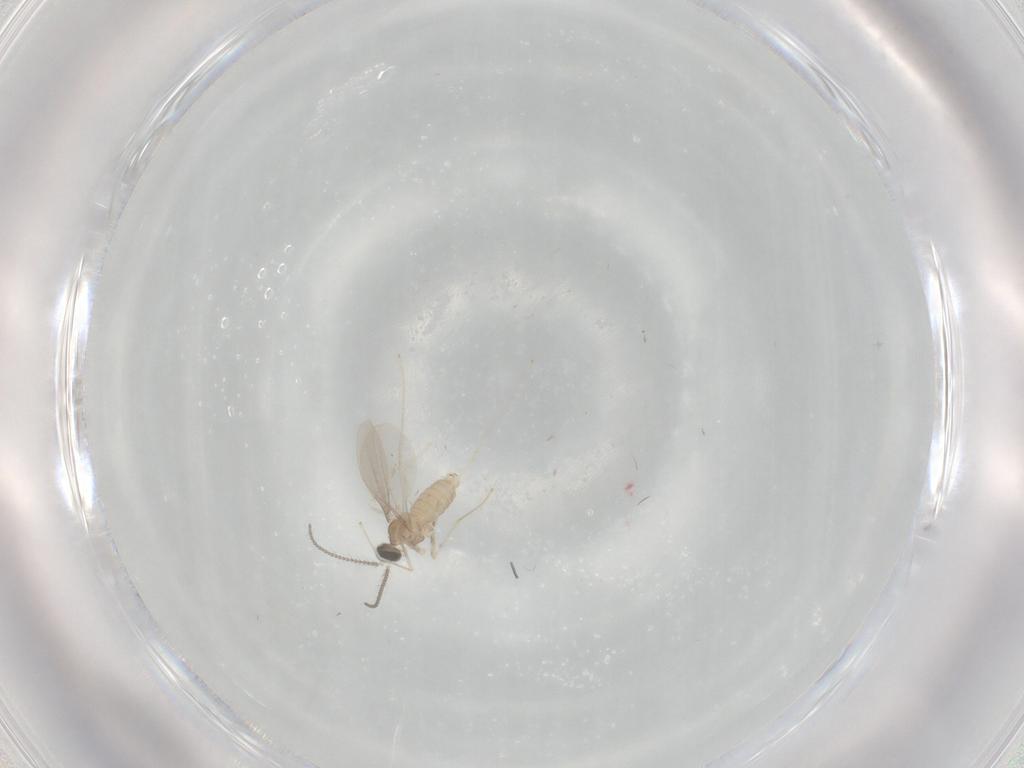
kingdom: Animalia
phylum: Arthropoda
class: Insecta
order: Diptera
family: Cecidomyiidae
